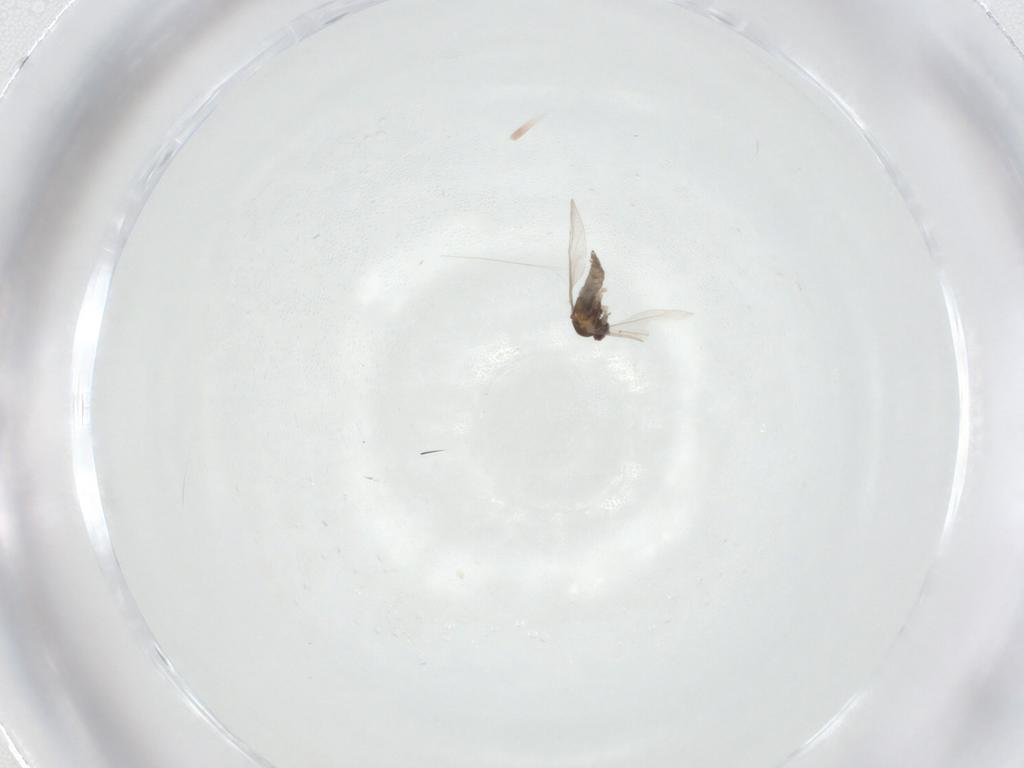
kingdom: Animalia
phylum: Arthropoda
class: Insecta
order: Diptera
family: Cecidomyiidae
